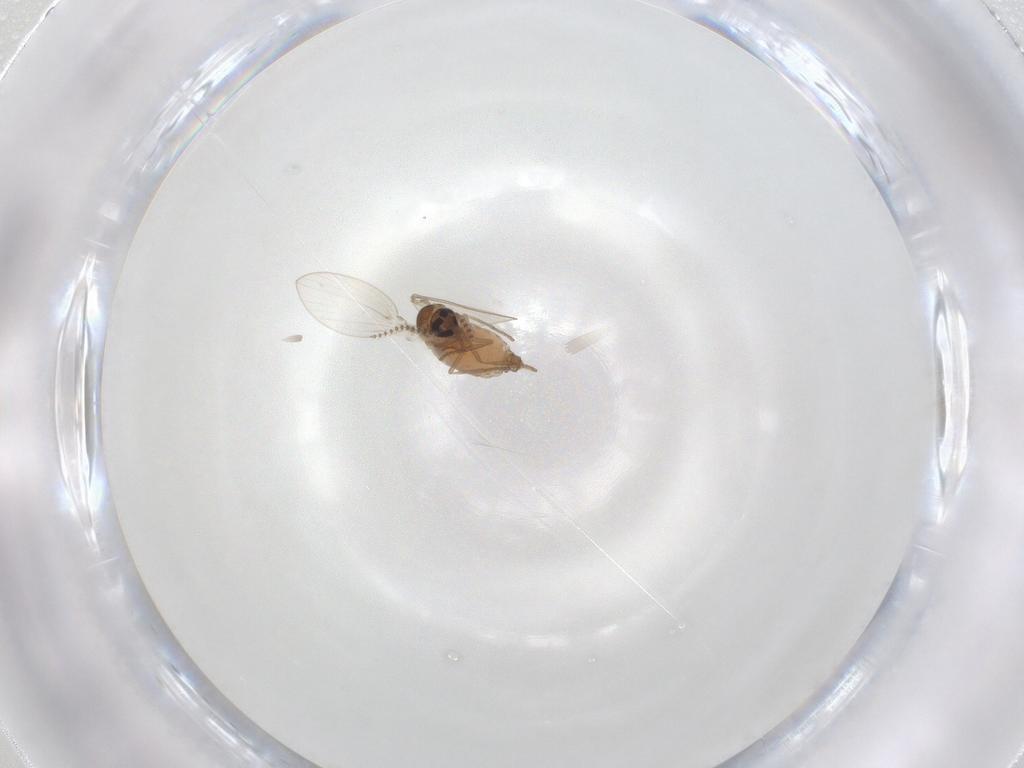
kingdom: Animalia
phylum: Arthropoda
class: Insecta
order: Diptera
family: Psychodidae
